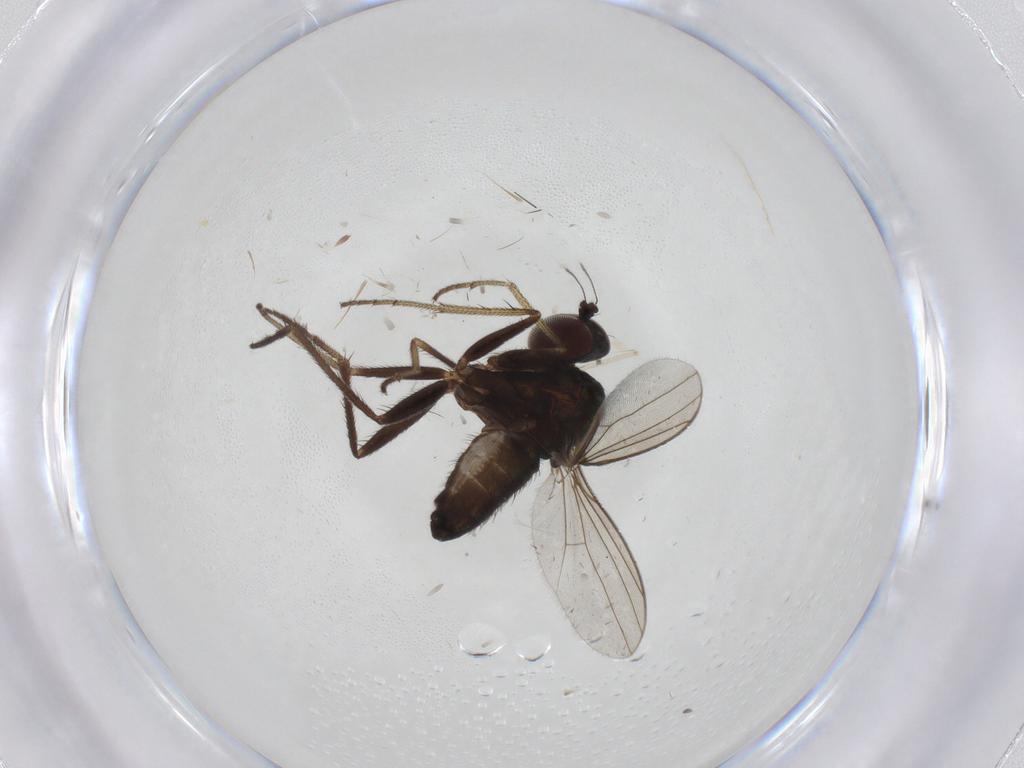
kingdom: Animalia
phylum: Arthropoda
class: Insecta
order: Diptera
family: Dolichopodidae
